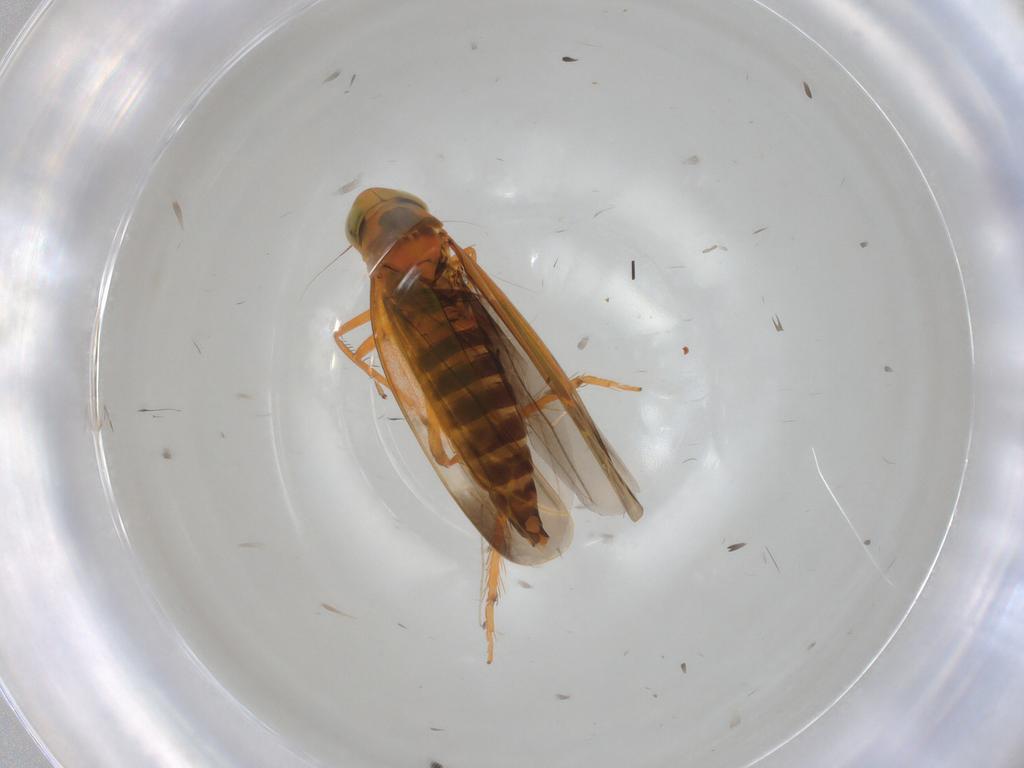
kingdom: Animalia
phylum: Arthropoda
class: Insecta
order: Hemiptera
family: Cicadellidae
